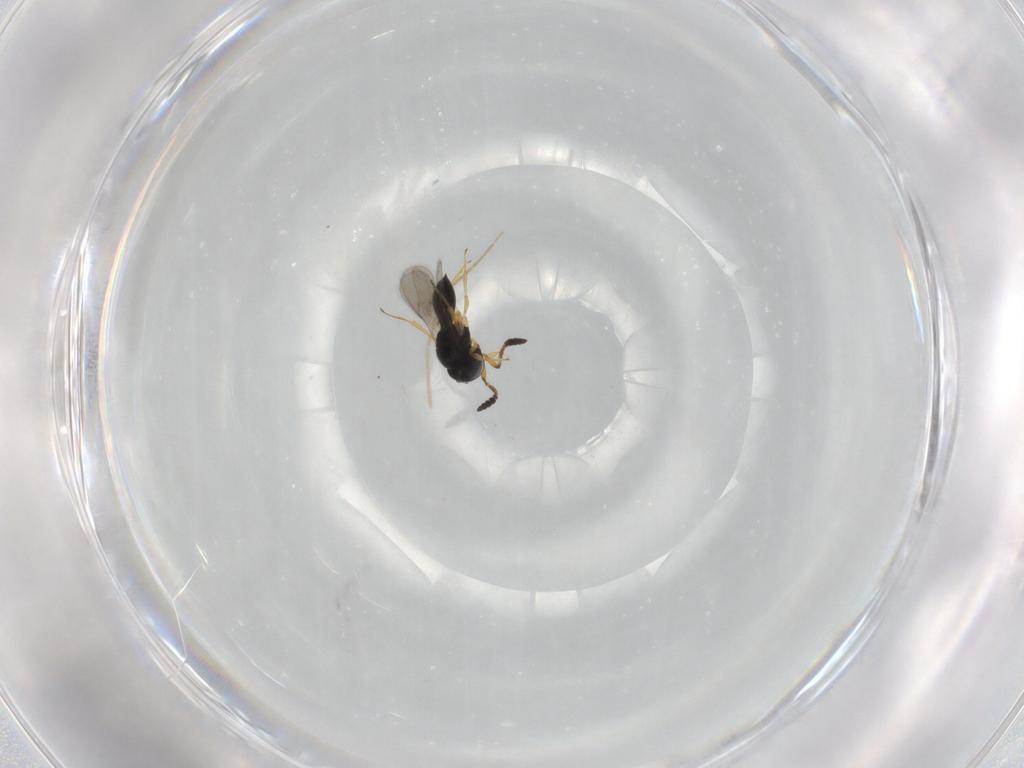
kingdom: Animalia
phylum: Arthropoda
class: Insecta
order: Hymenoptera
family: Scelionidae
